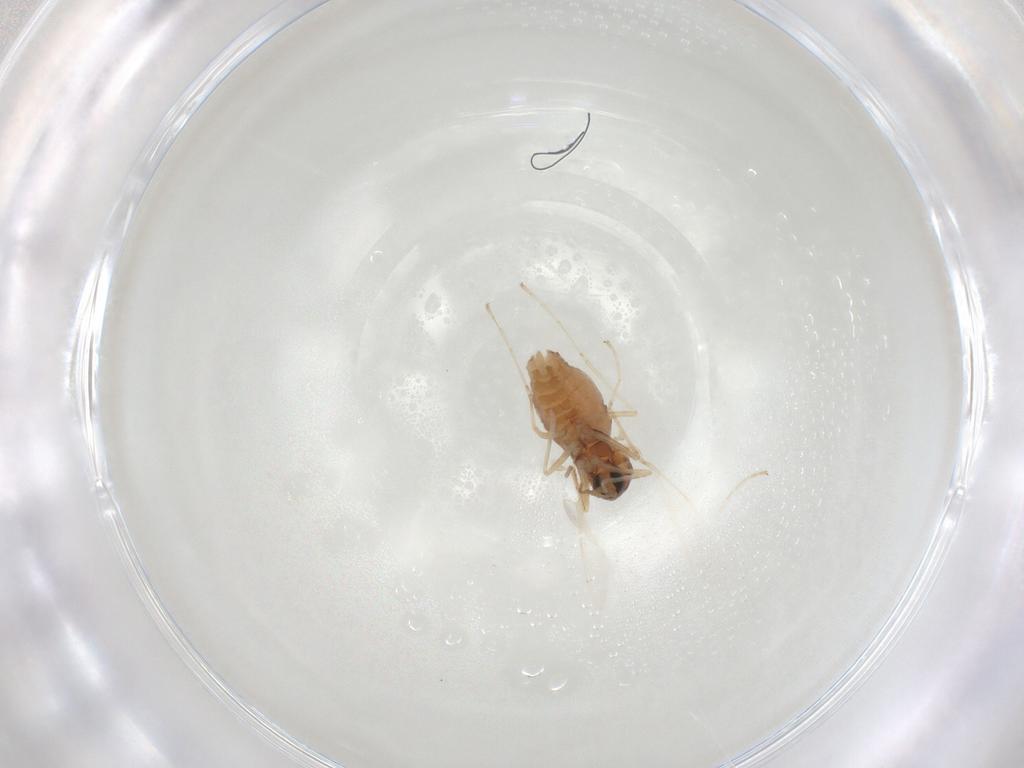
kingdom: Animalia
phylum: Arthropoda
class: Insecta
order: Diptera
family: Cecidomyiidae
